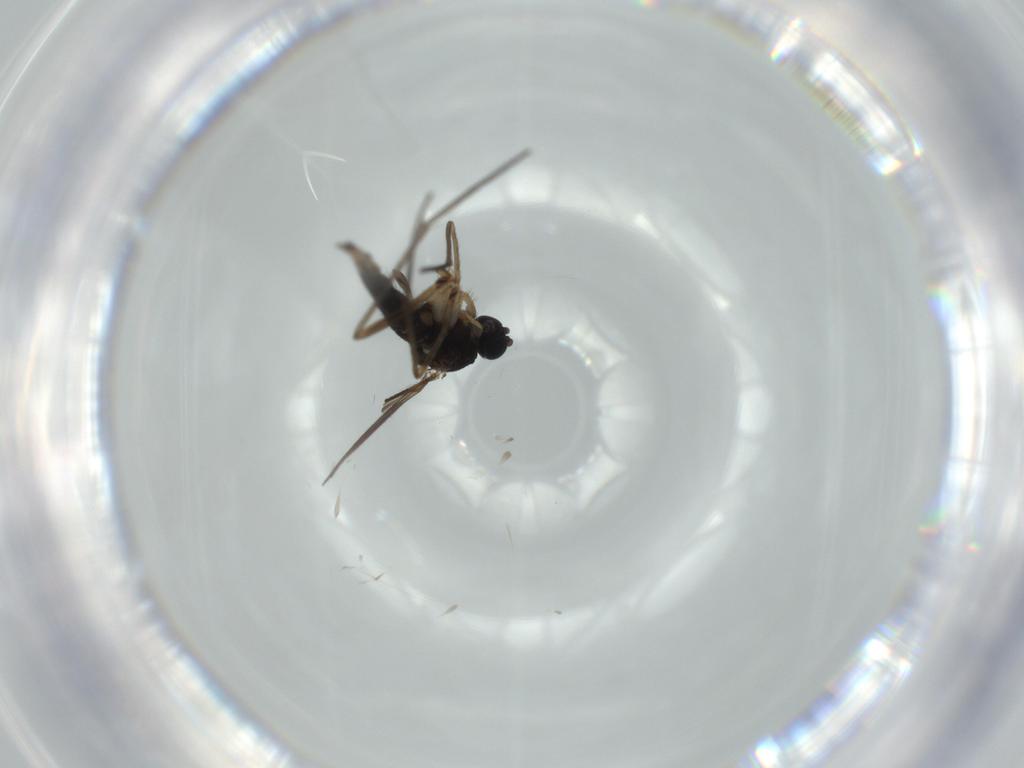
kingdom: Animalia
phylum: Arthropoda
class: Insecta
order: Diptera
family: Sciaridae
